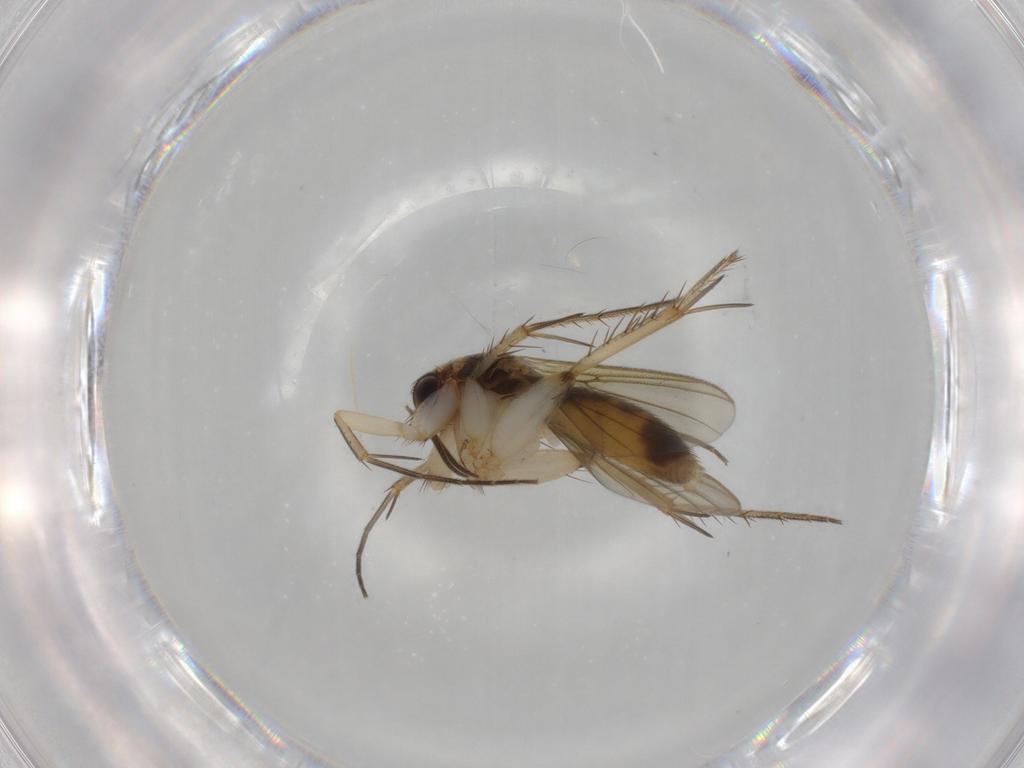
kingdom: Animalia
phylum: Arthropoda
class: Insecta
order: Diptera
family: Mycetophilidae
